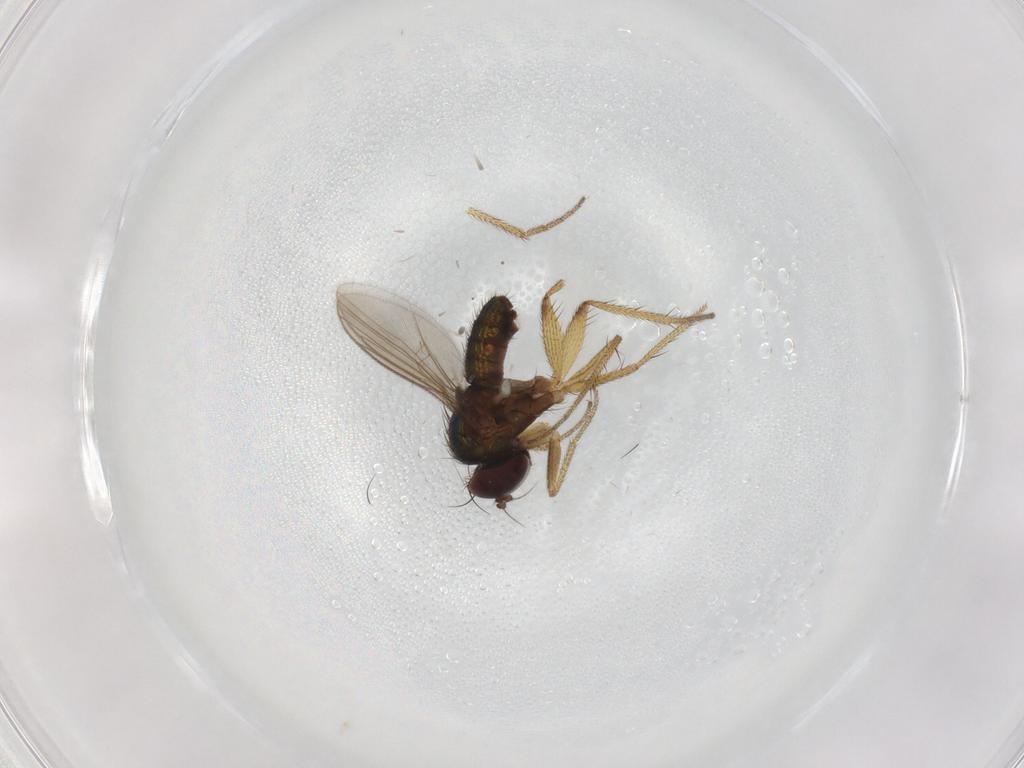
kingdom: Animalia
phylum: Arthropoda
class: Insecta
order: Diptera
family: Dolichopodidae
